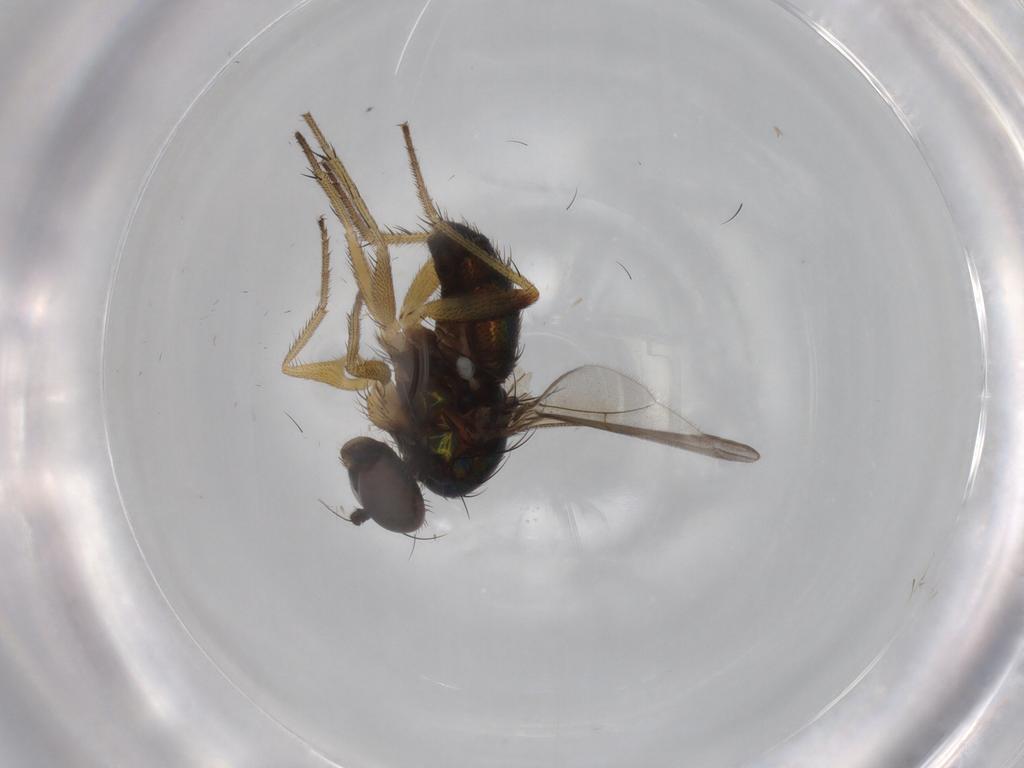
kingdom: Animalia
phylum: Arthropoda
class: Insecta
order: Diptera
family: Dolichopodidae
